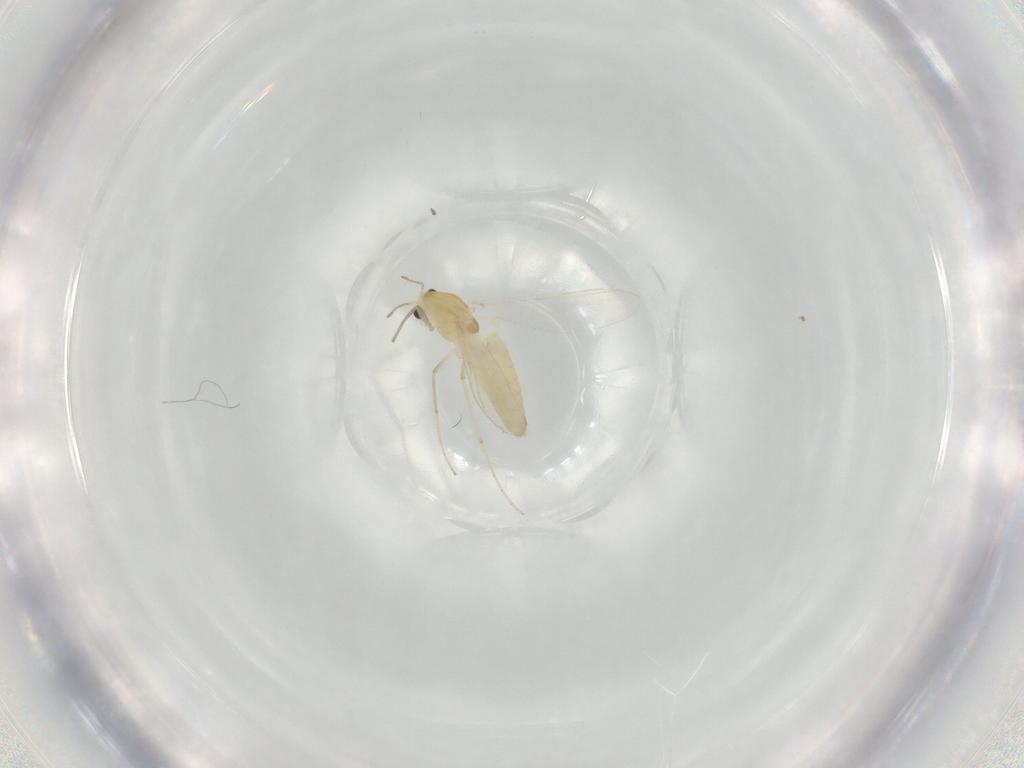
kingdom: Animalia
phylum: Arthropoda
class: Insecta
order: Diptera
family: Chironomidae
